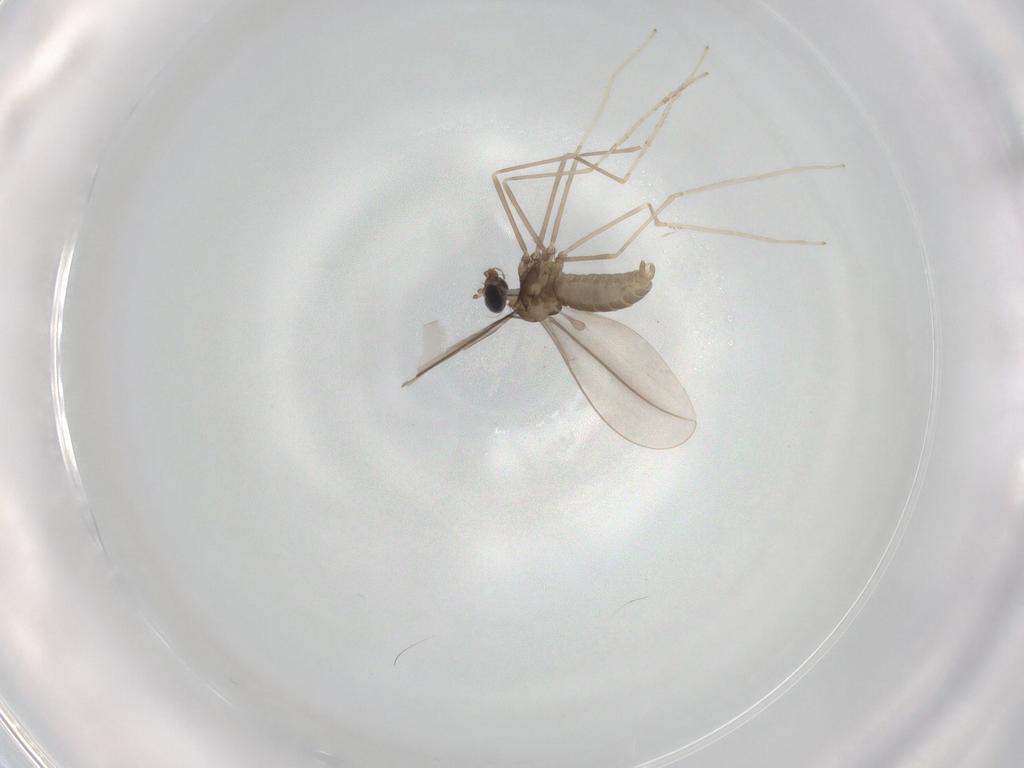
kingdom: Animalia
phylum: Arthropoda
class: Insecta
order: Diptera
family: Cecidomyiidae
